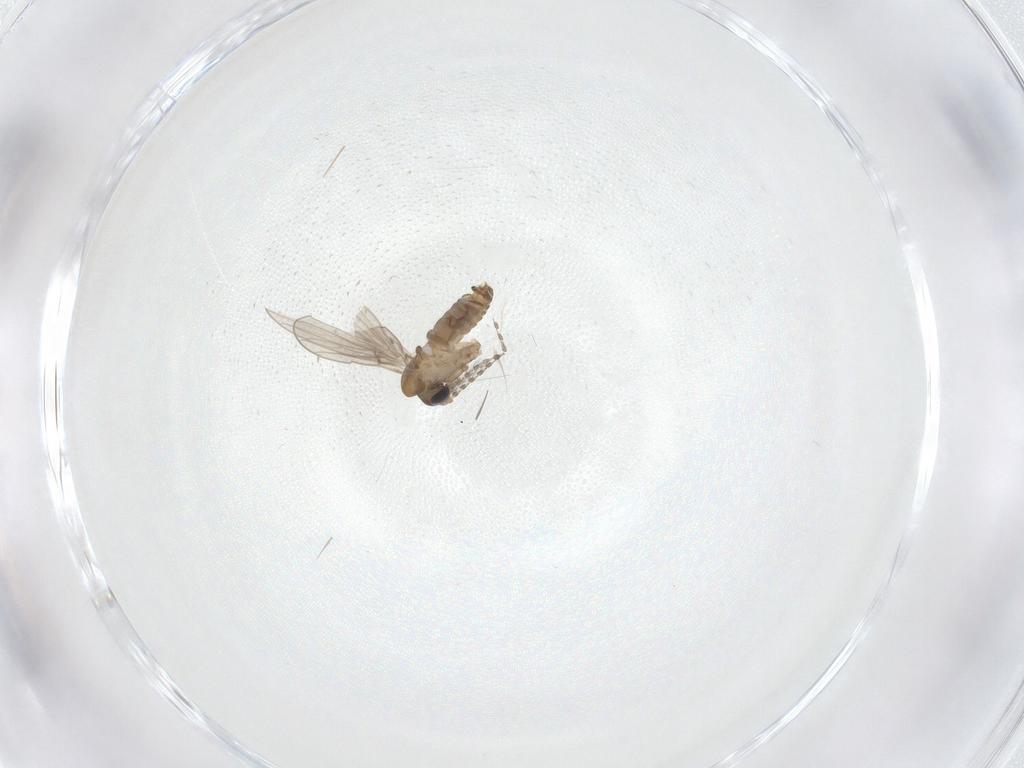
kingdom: Animalia
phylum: Arthropoda
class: Insecta
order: Diptera
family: Psychodidae
